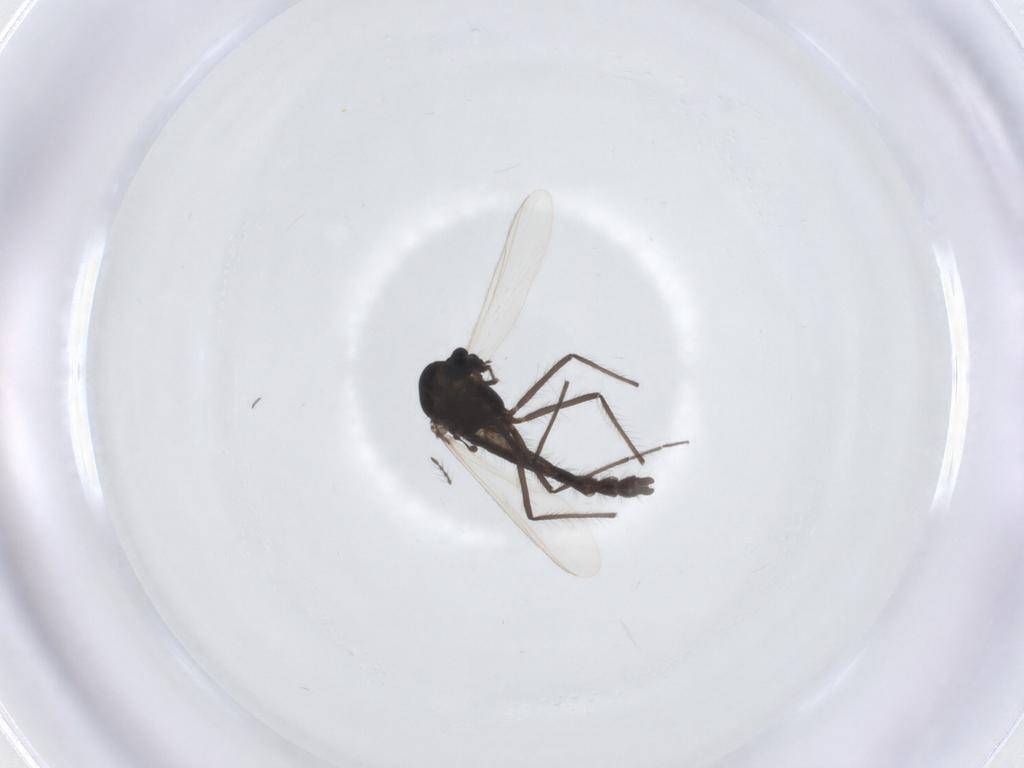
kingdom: Animalia
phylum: Arthropoda
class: Insecta
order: Diptera
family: Chironomidae
